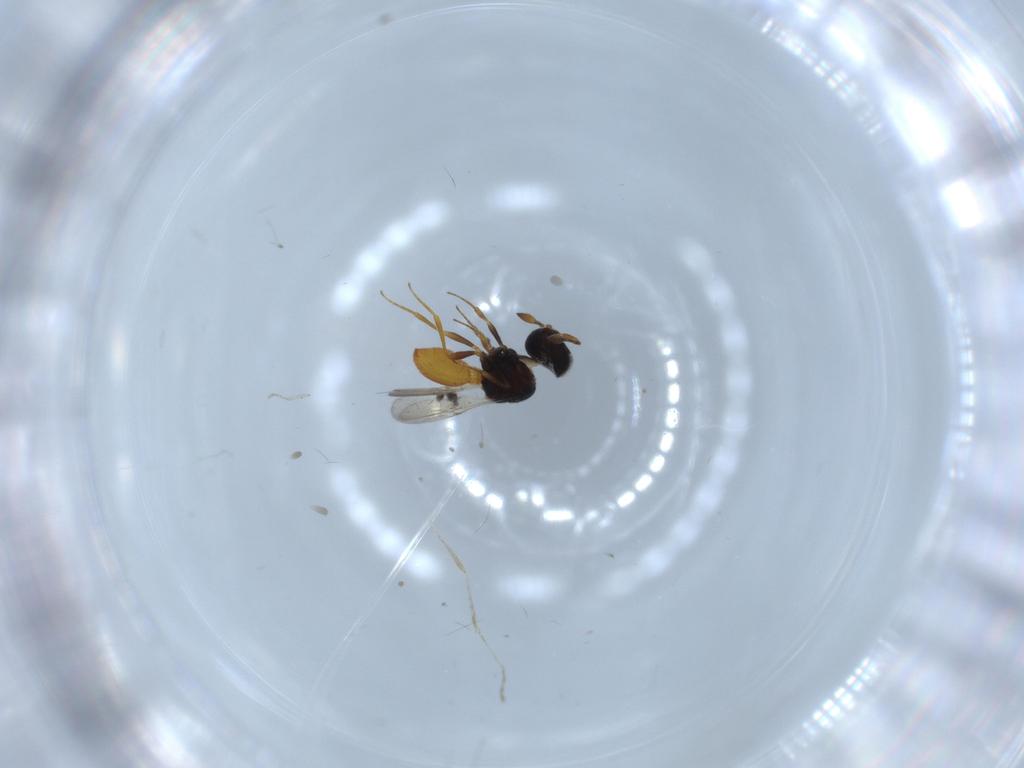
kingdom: Animalia
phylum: Arthropoda
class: Insecta
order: Hymenoptera
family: Scelionidae
